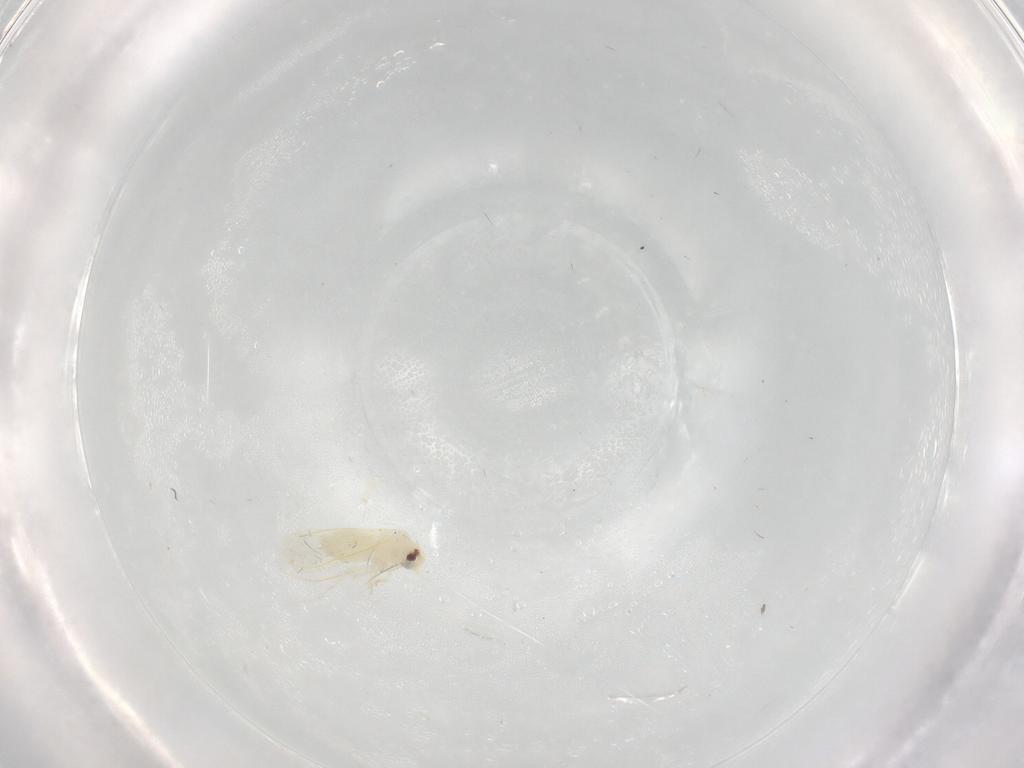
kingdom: Animalia
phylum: Arthropoda
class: Insecta
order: Hemiptera
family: Aleyrodidae
